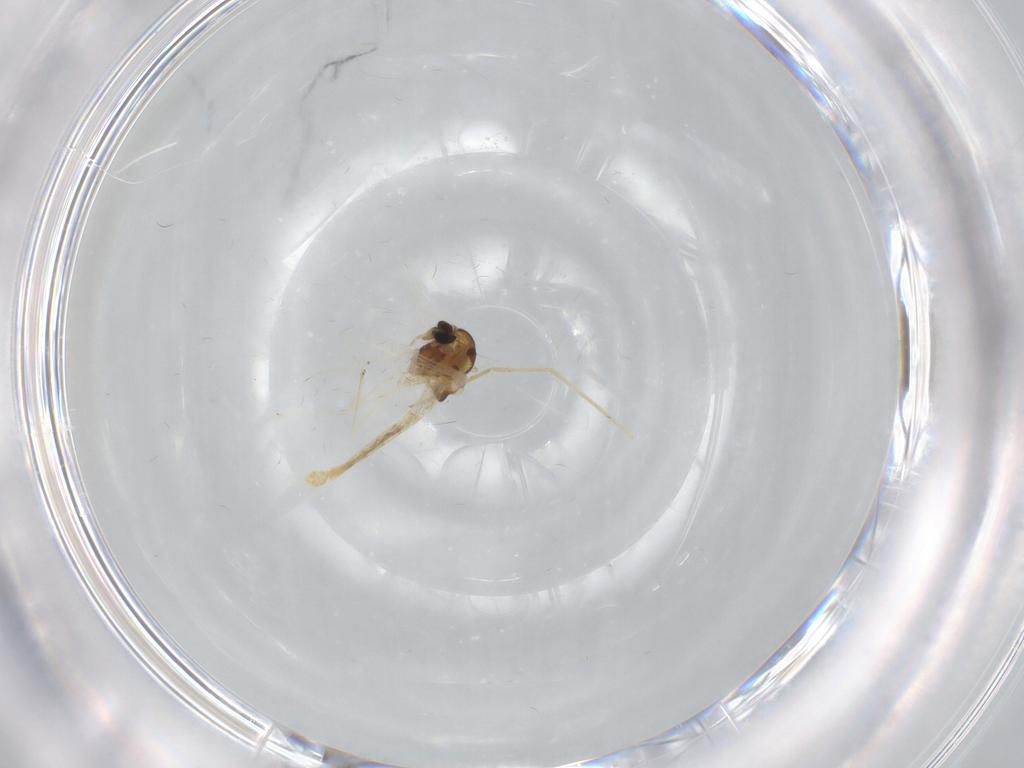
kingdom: Animalia
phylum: Arthropoda
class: Insecta
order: Diptera
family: Chironomidae
